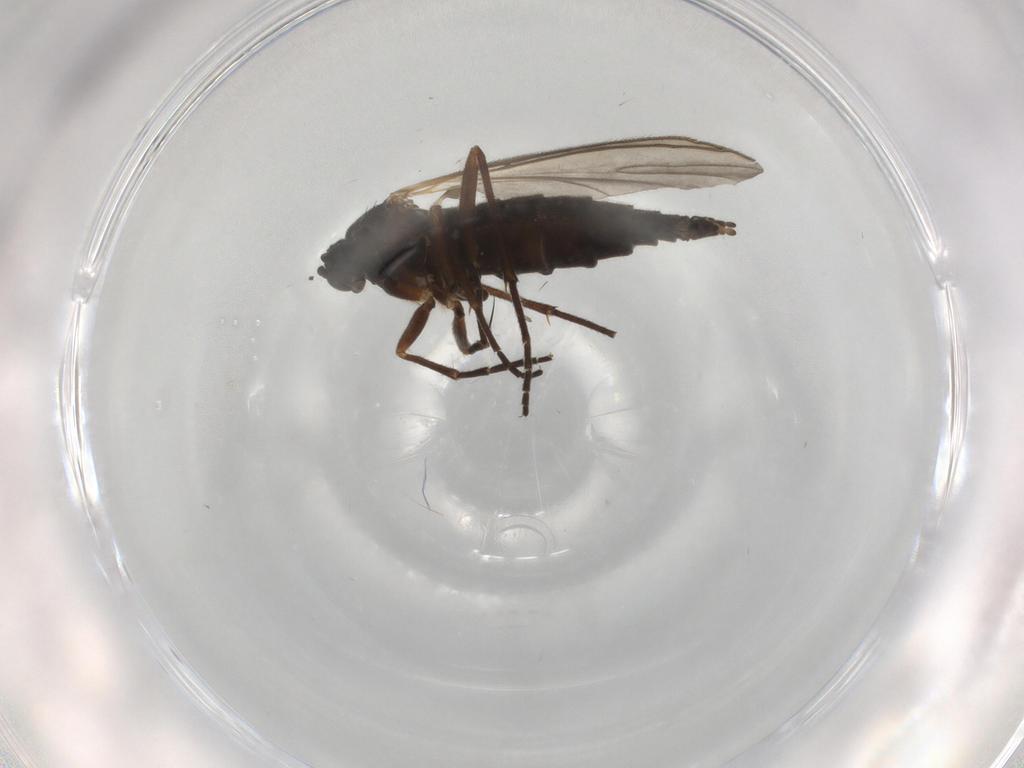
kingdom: Animalia
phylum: Arthropoda
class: Insecta
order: Diptera
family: Sciaridae
